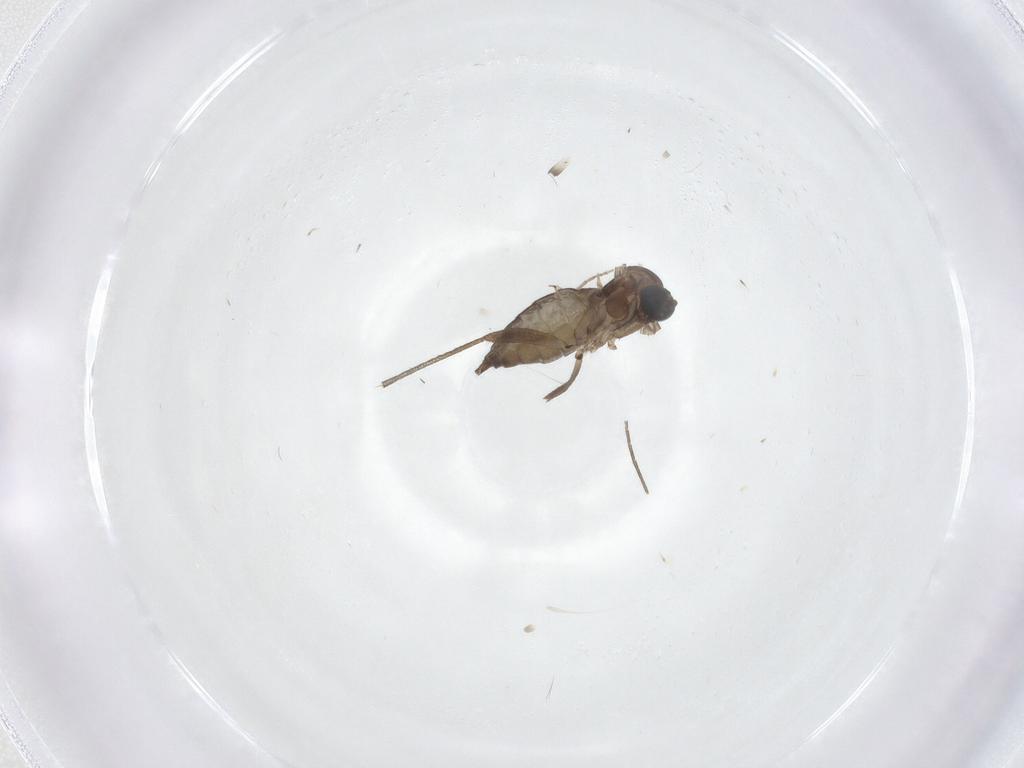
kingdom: Animalia
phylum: Arthropoda
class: Insecta
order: Diptera
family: Sciaridae
